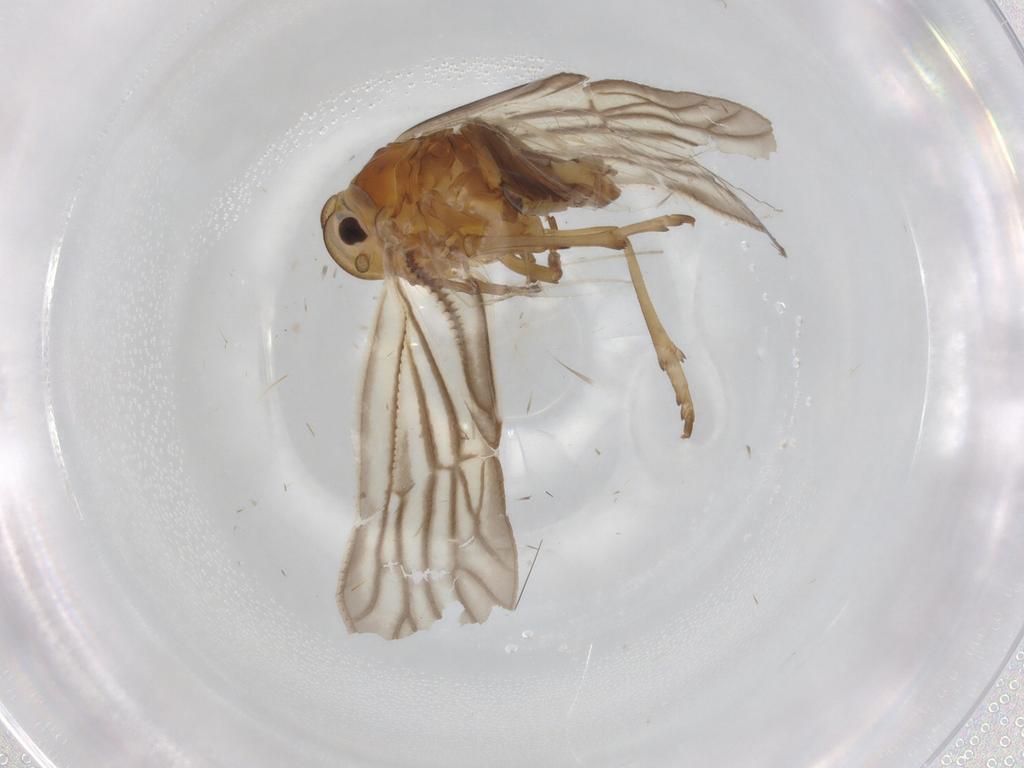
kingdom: Animalia
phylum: Arthropoda
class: Insecta
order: Hemiptera
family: Meenoplidae
